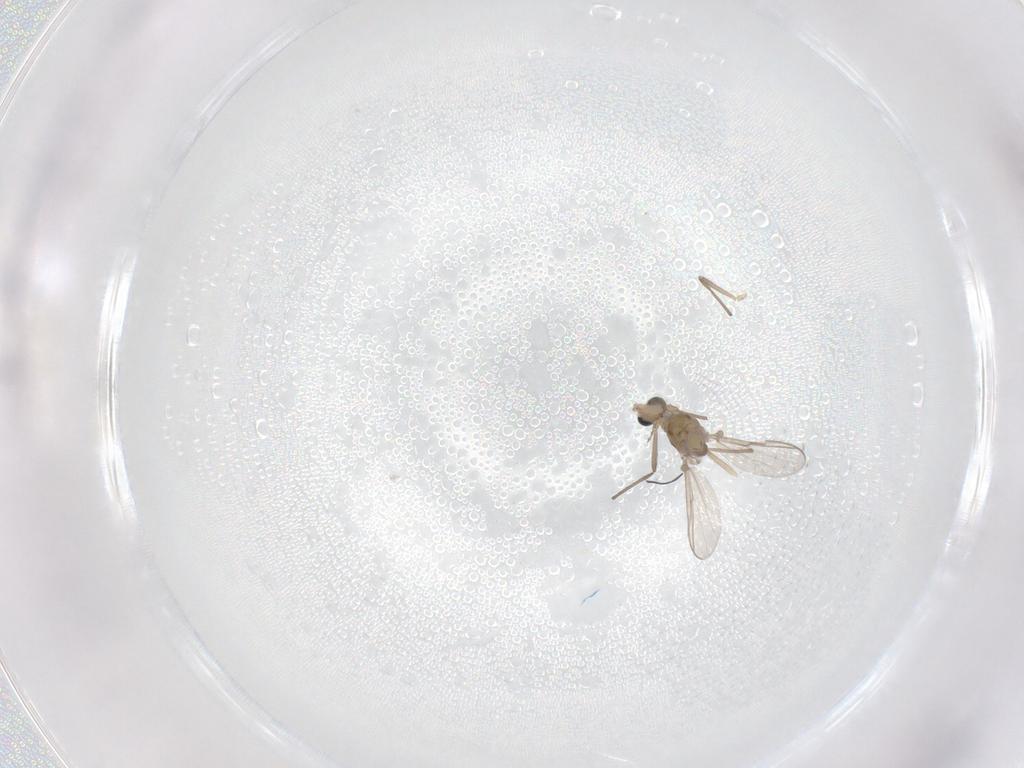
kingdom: Animalia
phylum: Arthropoda
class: Insecta
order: Diptera
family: Chironomidae
